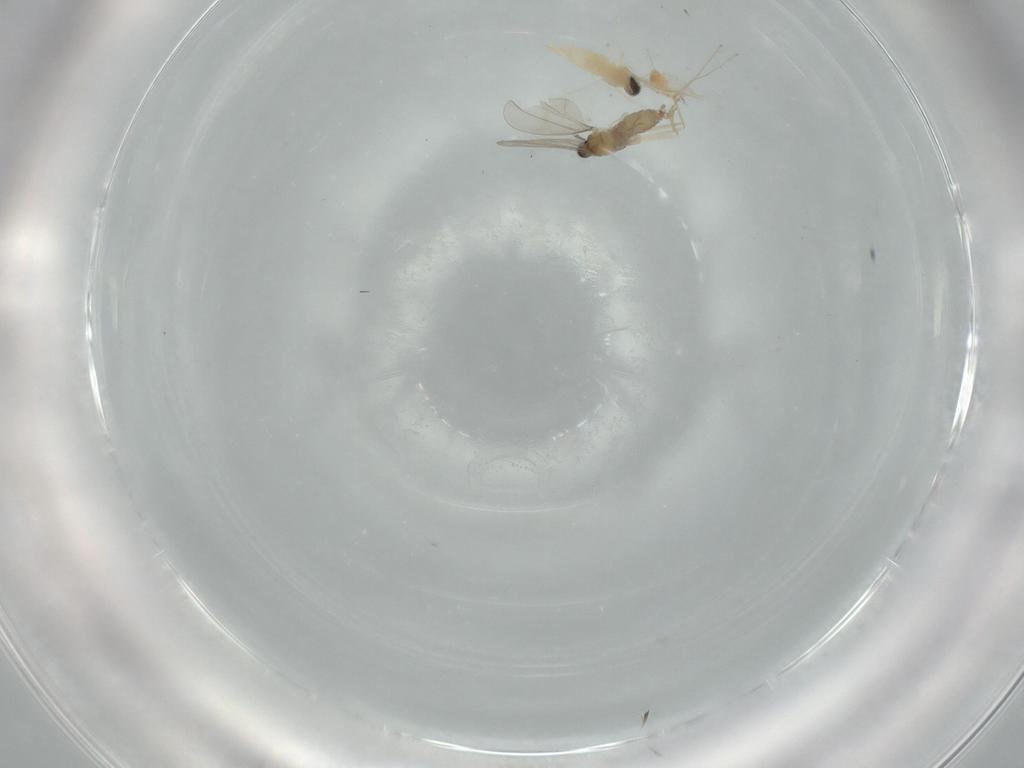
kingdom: Animalia
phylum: Arthropoda
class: Insecta
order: Diptera
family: Cecidomyiidae
